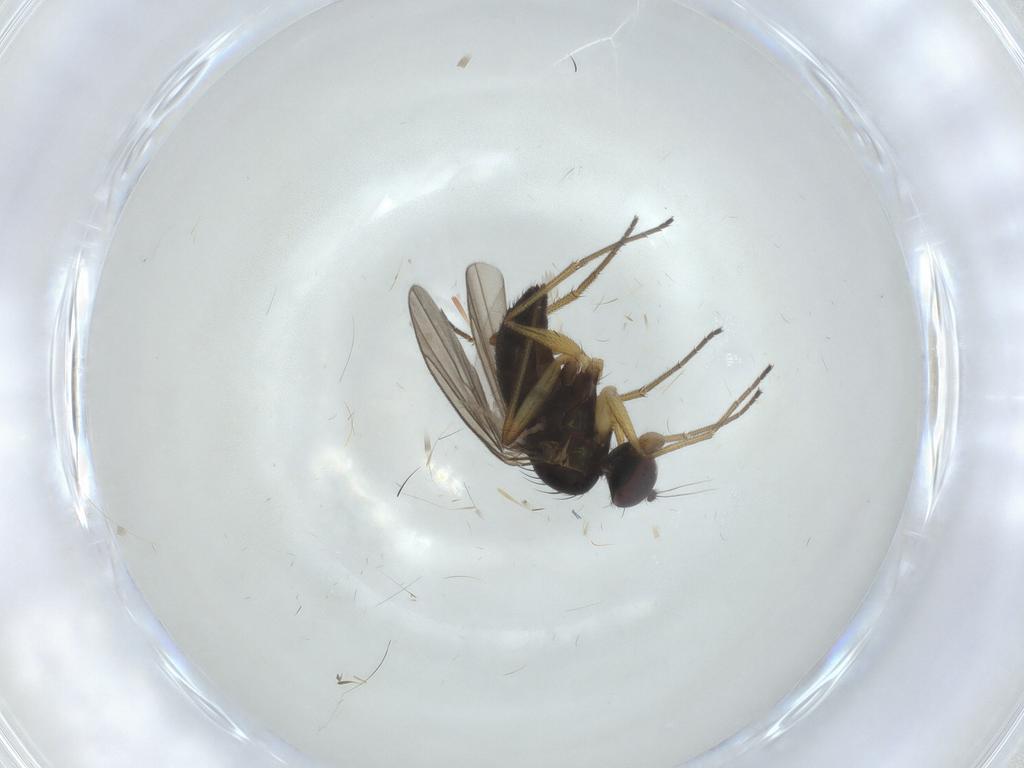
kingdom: Animalia
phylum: Arthropoda
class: Insecta
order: Diptera
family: Dolichopodidae
